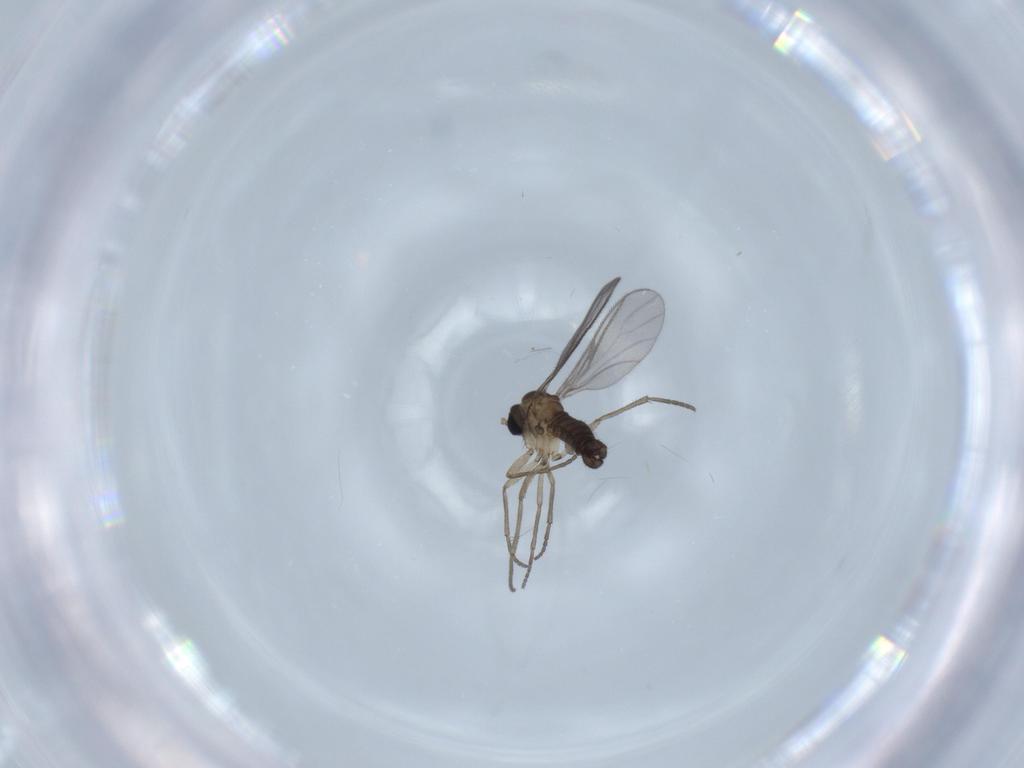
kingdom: Animalia
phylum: Arthropoda
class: Insecta
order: Diptera
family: Sciaridae
